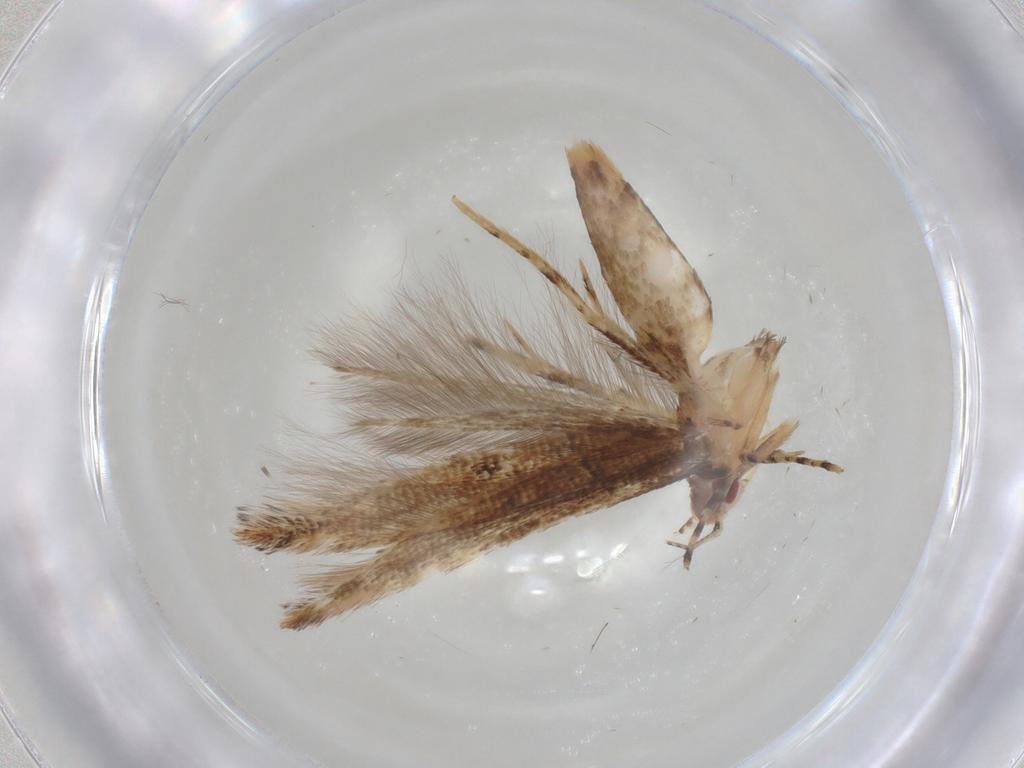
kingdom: Animalia
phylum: Arthropoda
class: Insecta
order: Lepidoptera
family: Cosmopterigidae
